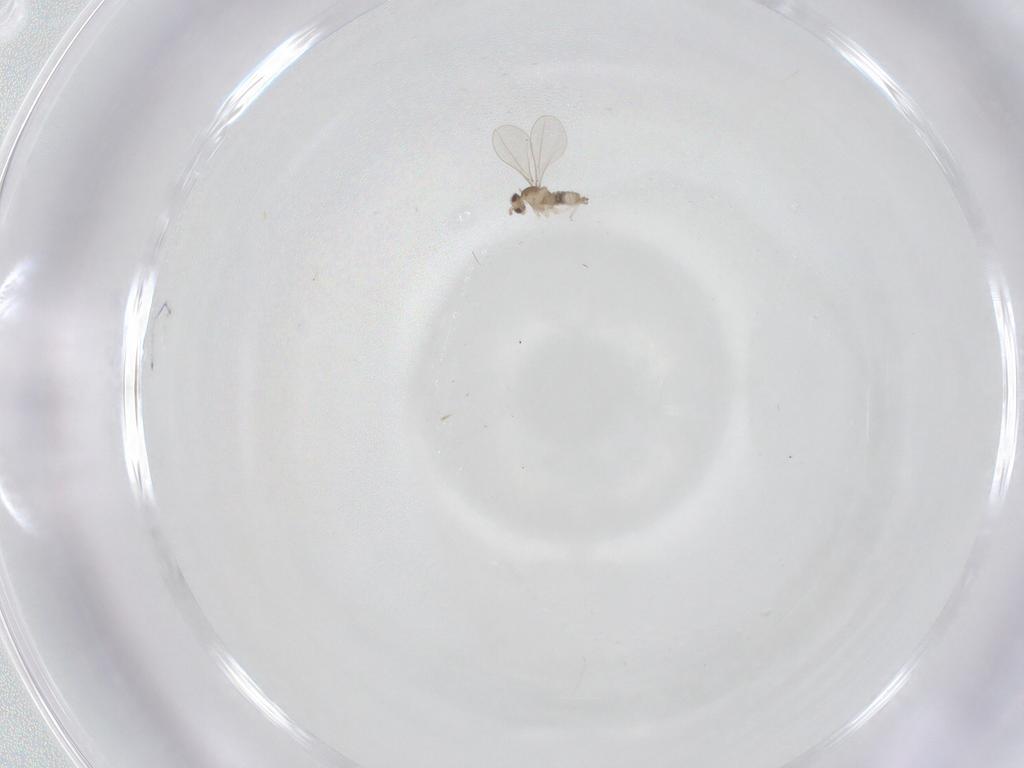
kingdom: Animalia
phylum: Arthropoda
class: Insecta
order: Diptera
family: Cecidomyiidae
